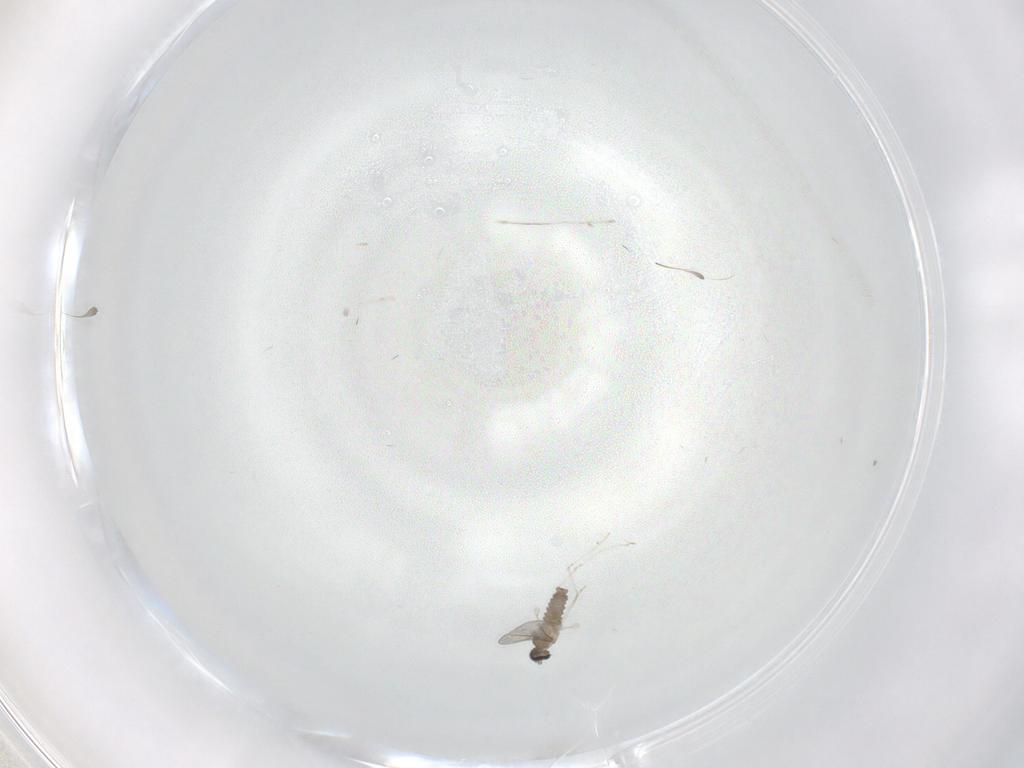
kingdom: Animalia
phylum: Arthropoda
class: Insecta
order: Diptera
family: Cecidomyiidae
